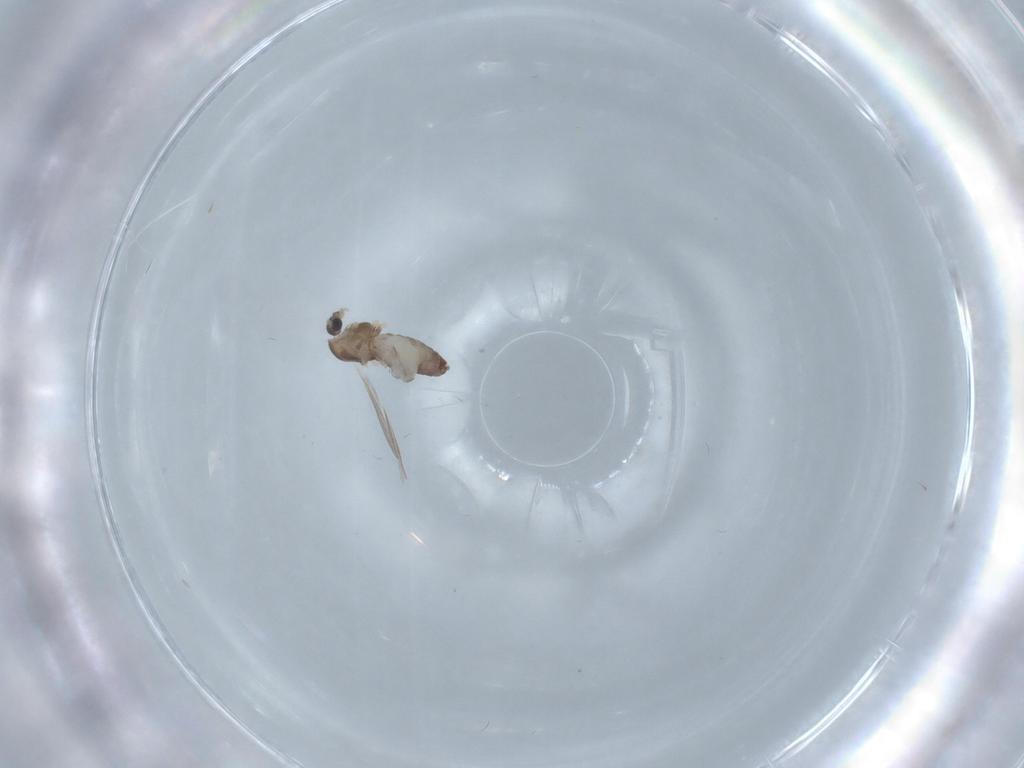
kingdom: Animalia
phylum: Arthropoda
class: Insecta
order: Diptera
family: Chironomidae
